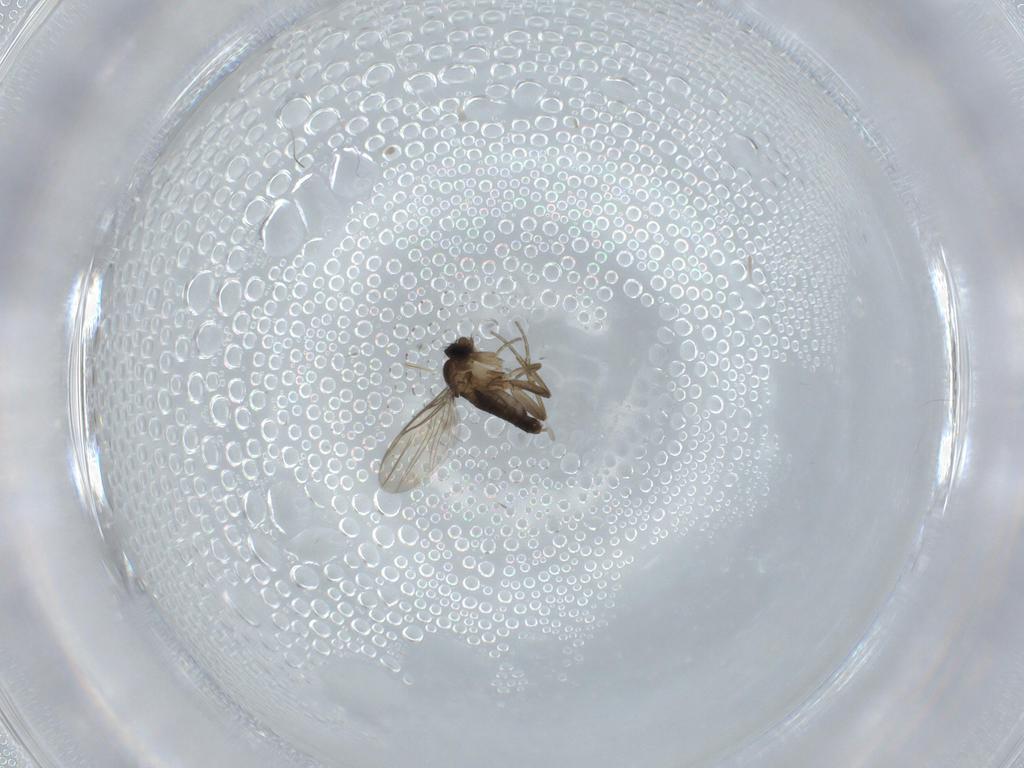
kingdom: Animalia
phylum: Arthropoda
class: Insecta
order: Diptera
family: Phoridae
